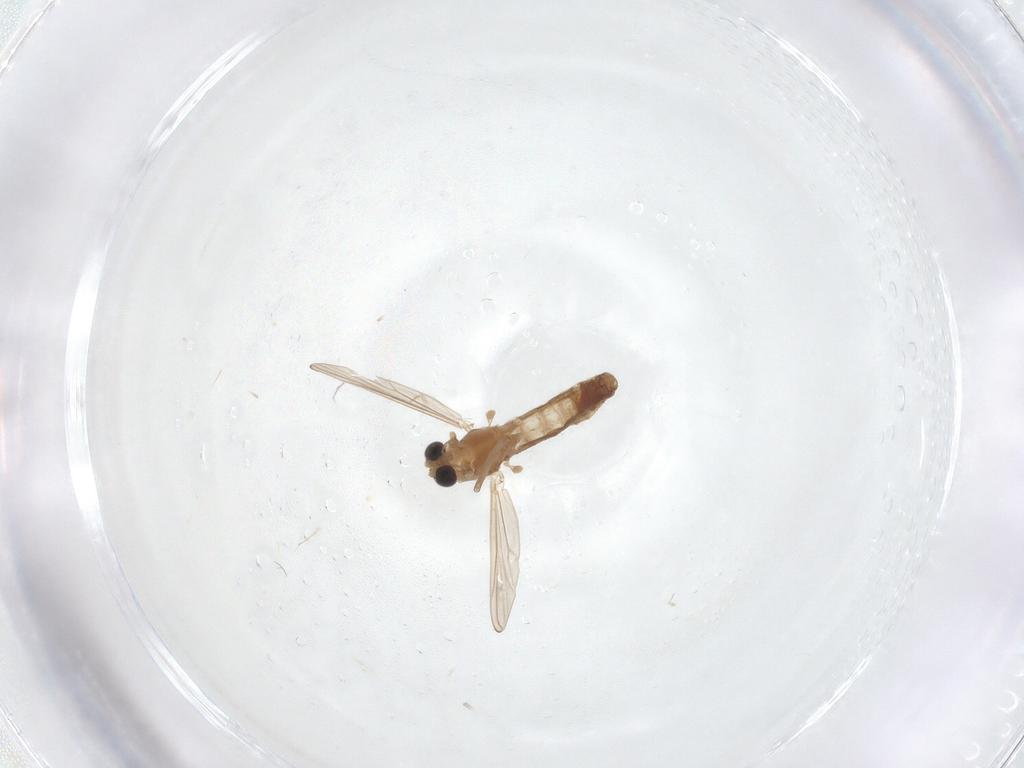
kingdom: Animalia
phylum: Arthropoda
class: Insecta
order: Diptera
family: Chironomidae
